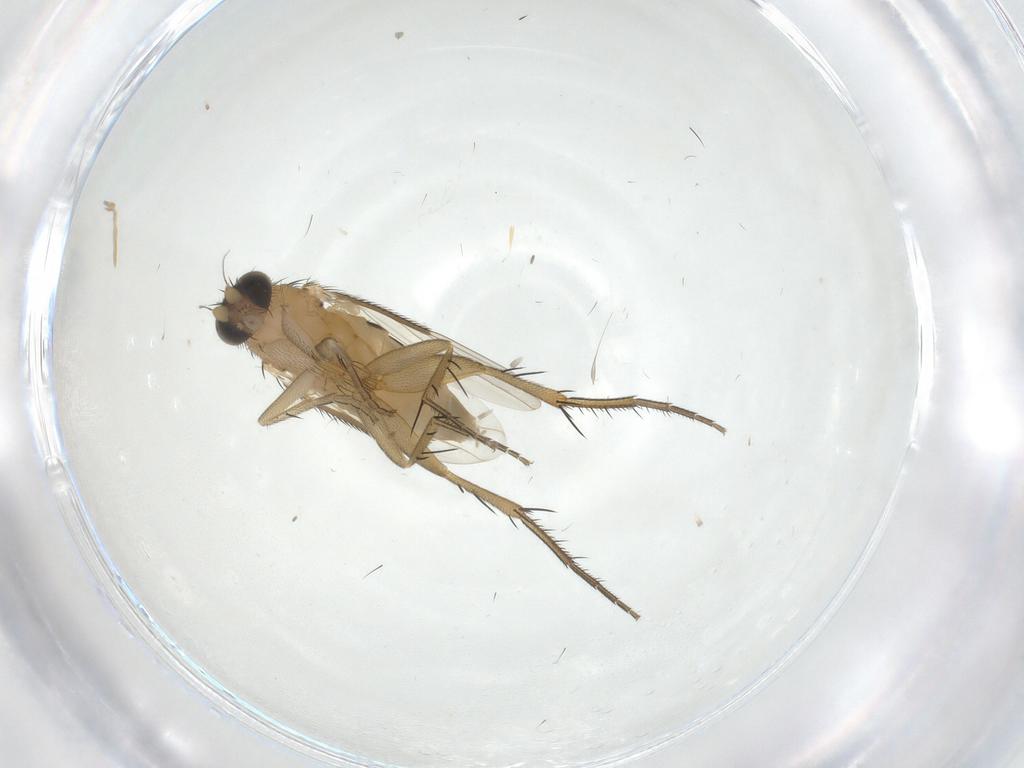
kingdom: Animalia
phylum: Arthropoda
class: Insecta
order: Diptera
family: Phoridae
